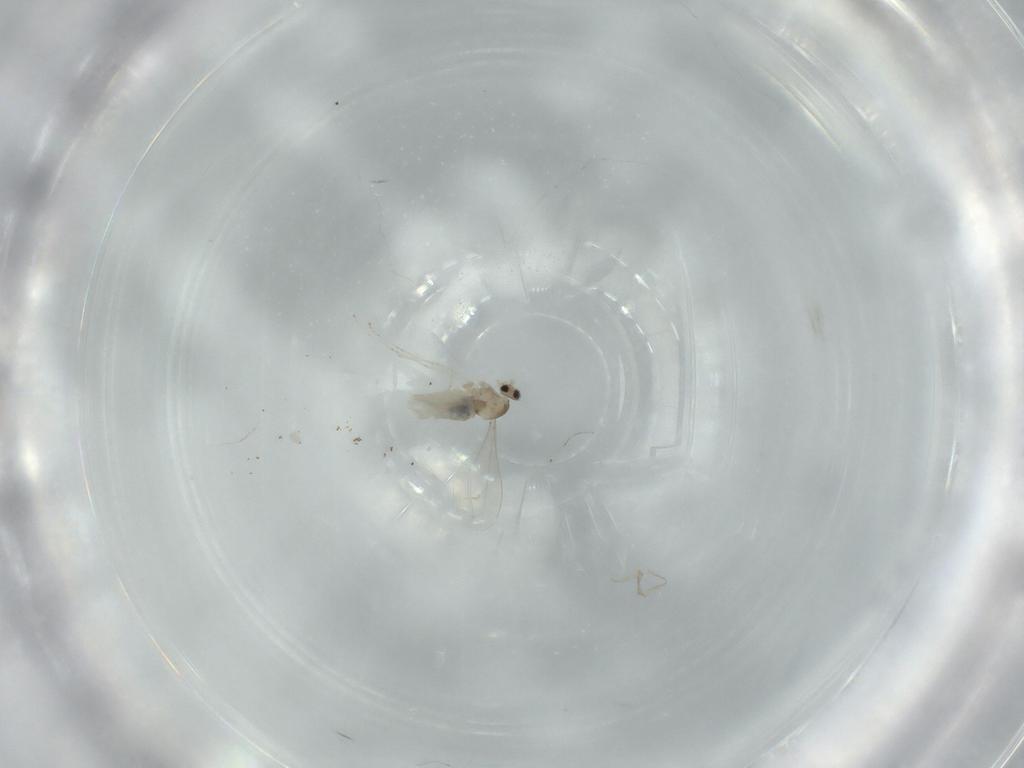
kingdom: Animalia
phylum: Arthropoda
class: Insecta
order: Diptera
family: Cecidomyiidae
